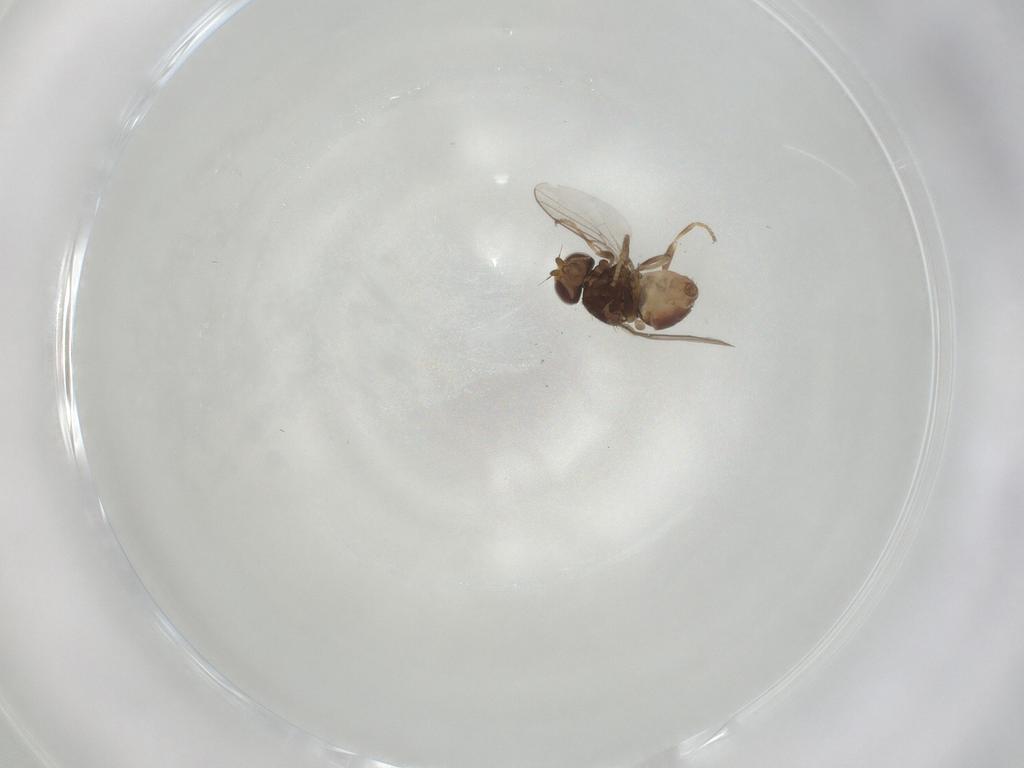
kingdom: Animalia
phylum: Arthropoda
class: Insecta
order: Diptera
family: Chloropidae
